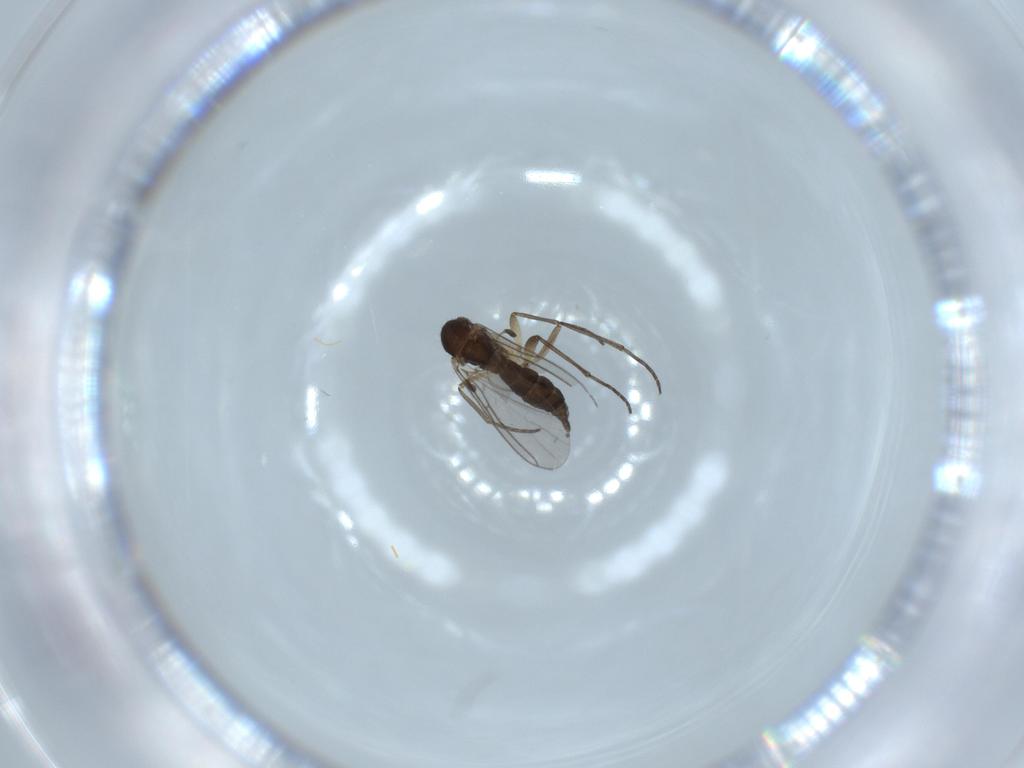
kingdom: Animalia
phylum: Arthropoda
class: Insecta
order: Diptera
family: Sciaridae
